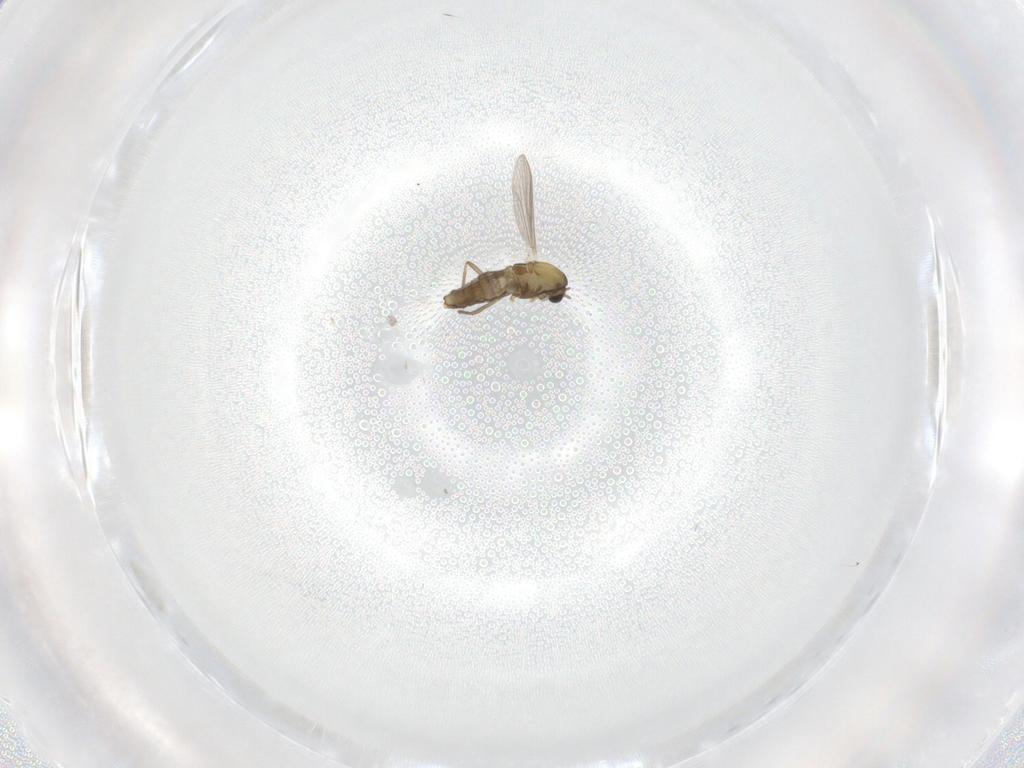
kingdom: Animalia
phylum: Arthropoda
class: Insecta
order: Diptera
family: Chironomidae
